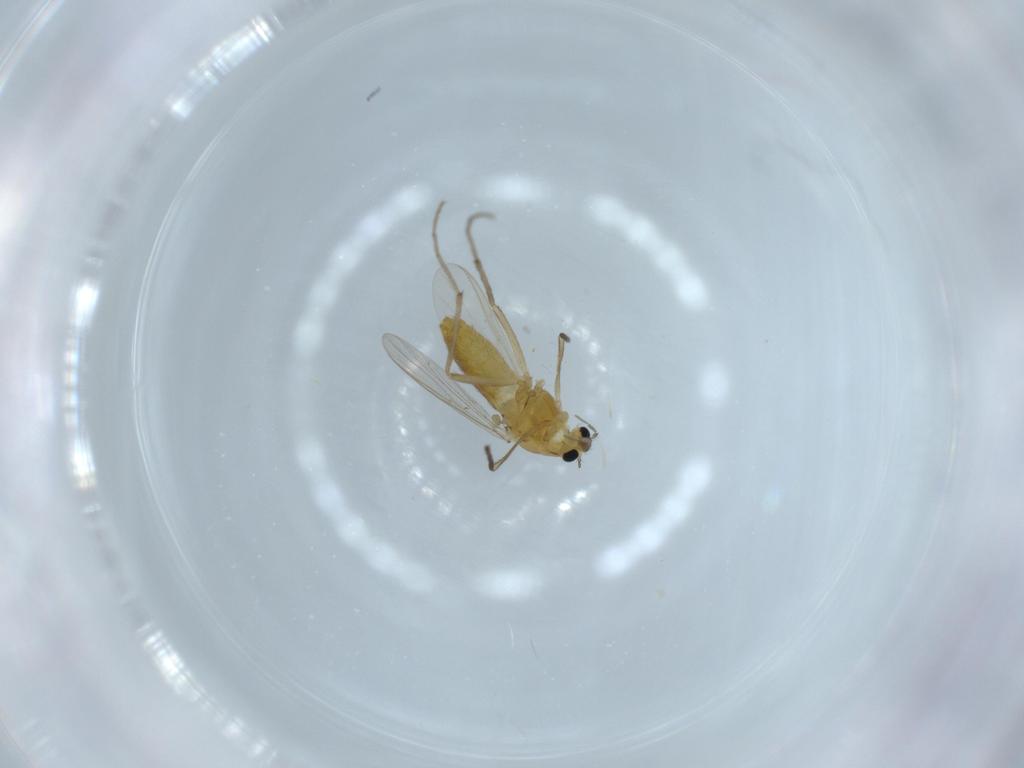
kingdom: Animalia
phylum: Arthropoda
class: Insecta
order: Diptera
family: Chironomidae
